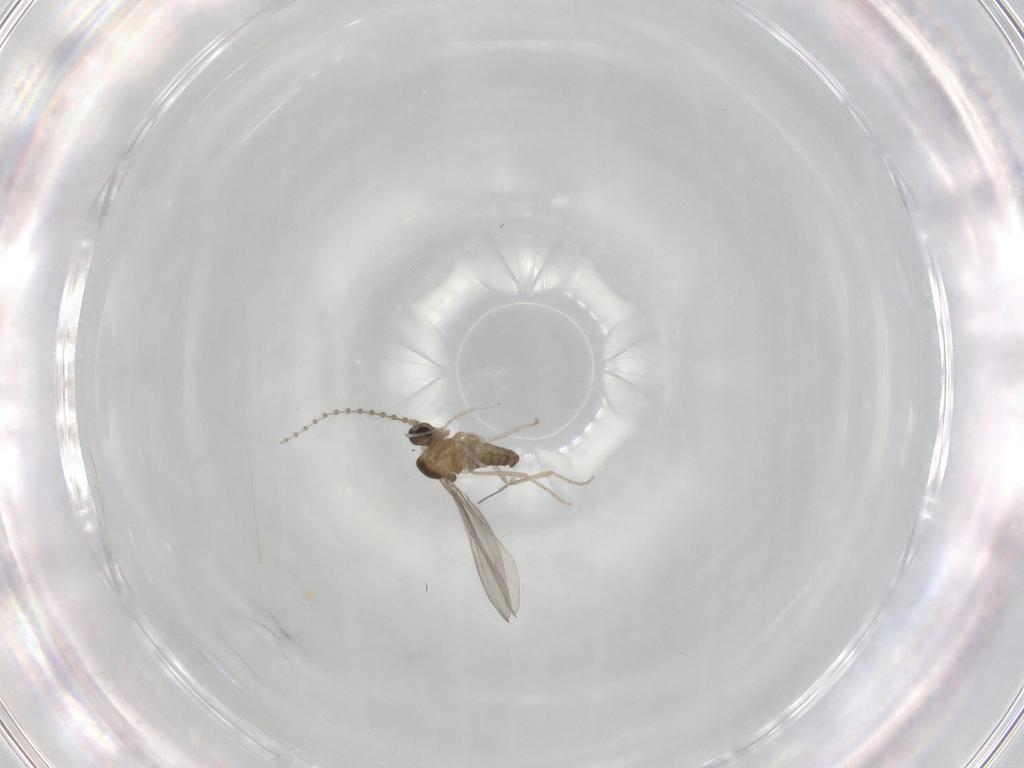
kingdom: Animalia
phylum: Arthropoda
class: Insecta
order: Diptera
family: Cecidomyiidae
